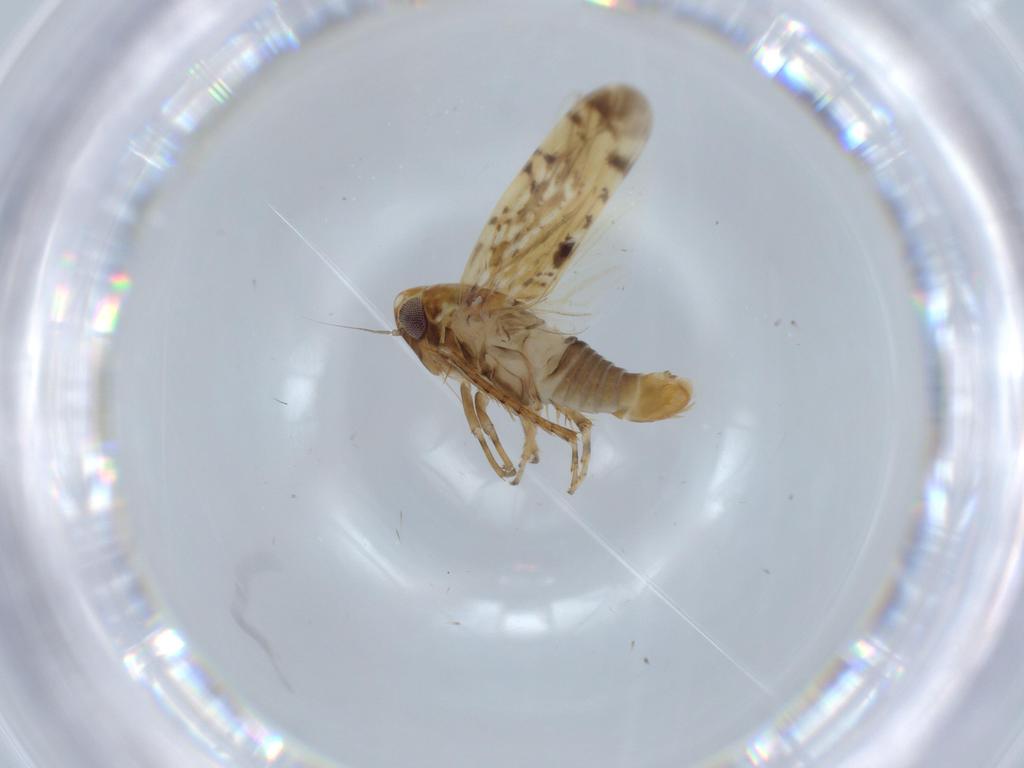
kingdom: Animalia
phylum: Arthropoda
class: Insecta
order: Hemiptera
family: Cicadellidae
